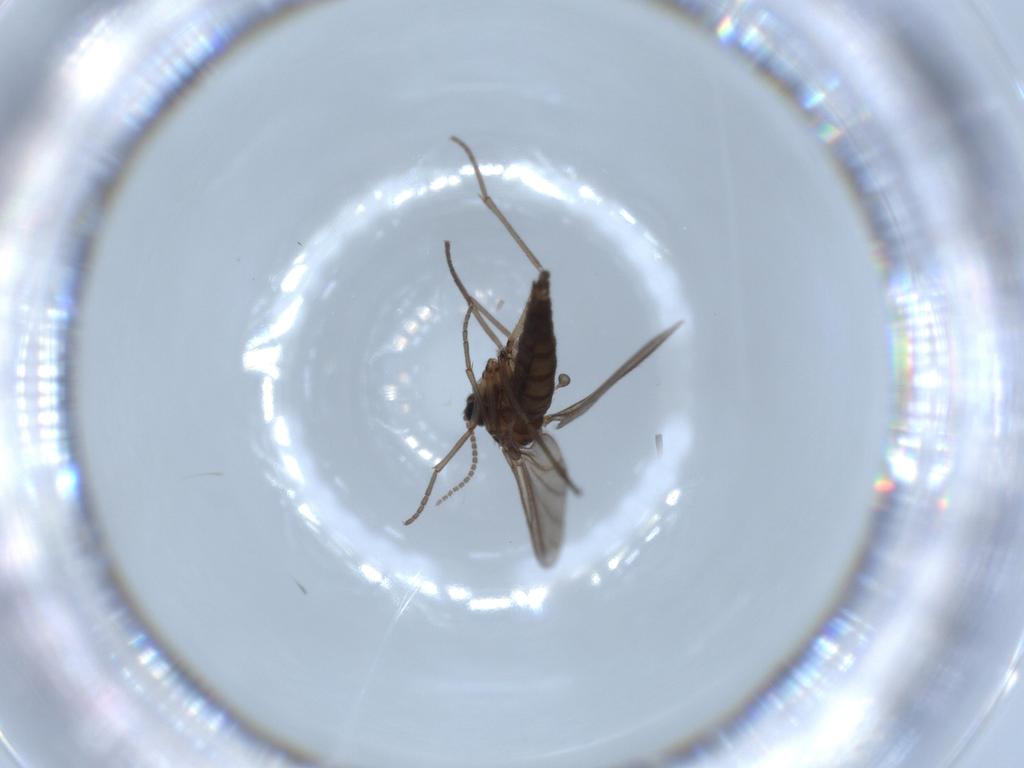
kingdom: Animalia
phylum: Arthropoda
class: Insecta
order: Diptera
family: Sciaridae
